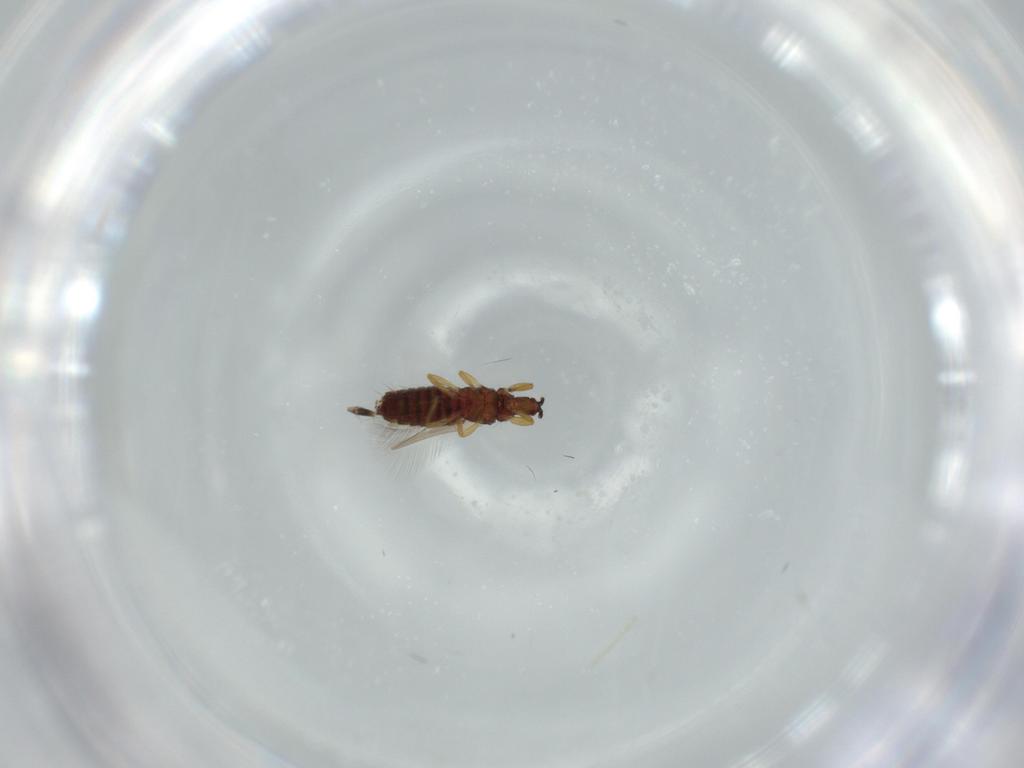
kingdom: Animalia
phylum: Arthropoda
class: Insecta
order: Thysanoptera
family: Phlaeothripidae
